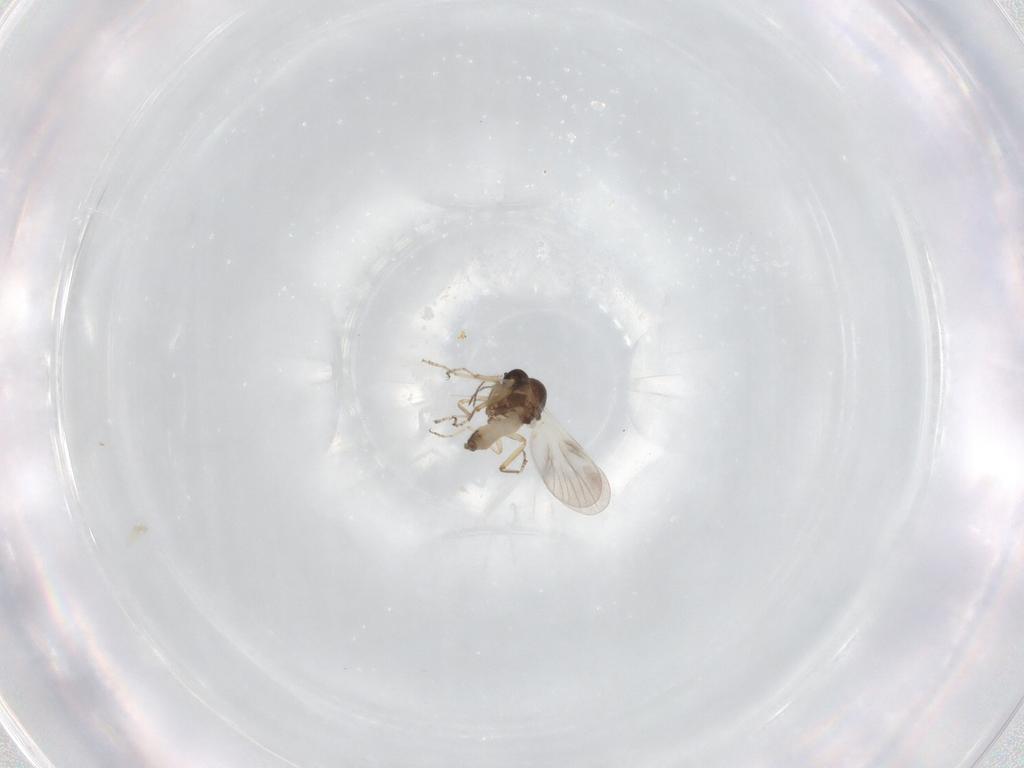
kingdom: Animalia
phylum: Arthropoda
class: Insecta
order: Diptera
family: Ceratopogonidae
